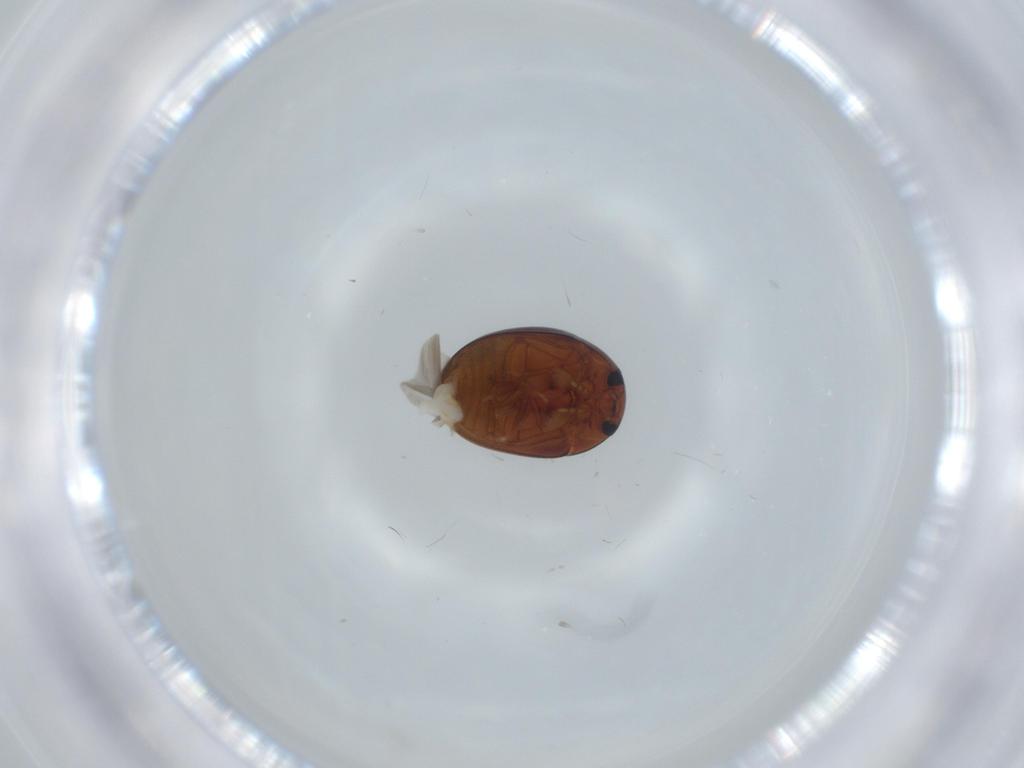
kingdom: Animalia
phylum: Arthropoda
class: Insecta
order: Coleoptera
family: Phalacridae
